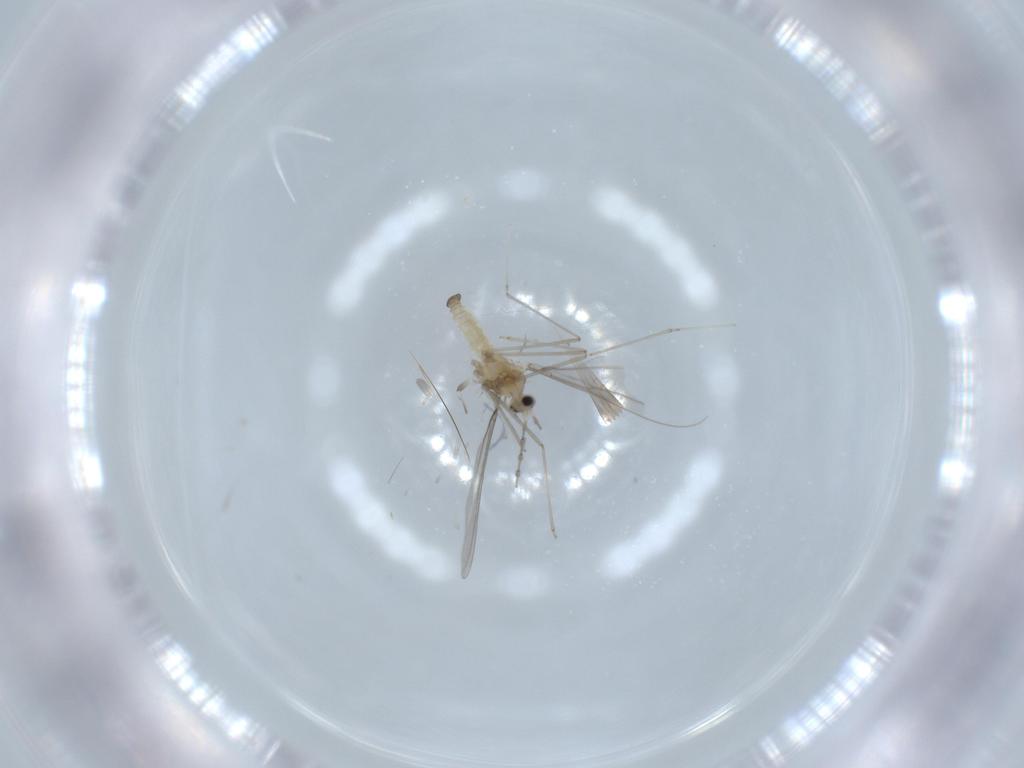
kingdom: Animalia
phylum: Arthropoda
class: Insecta
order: Diptera
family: Cecidomyiidae
